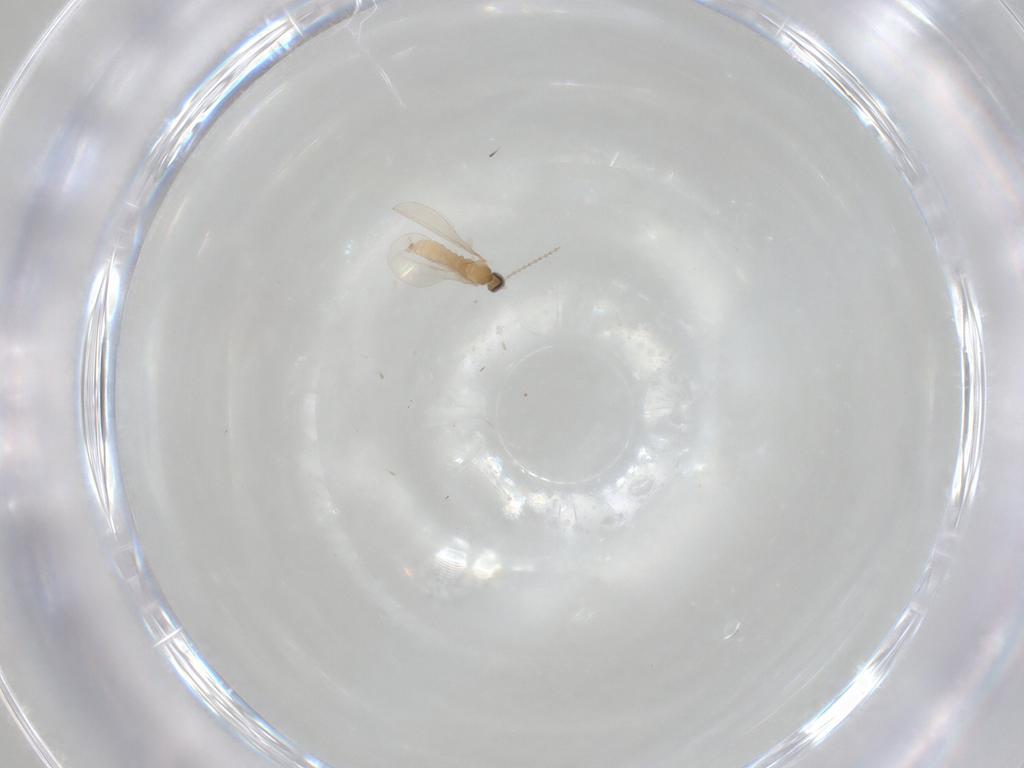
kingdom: Animalia
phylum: Arthropoda
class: Insecta
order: Diptera
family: Cecidomyiidae
